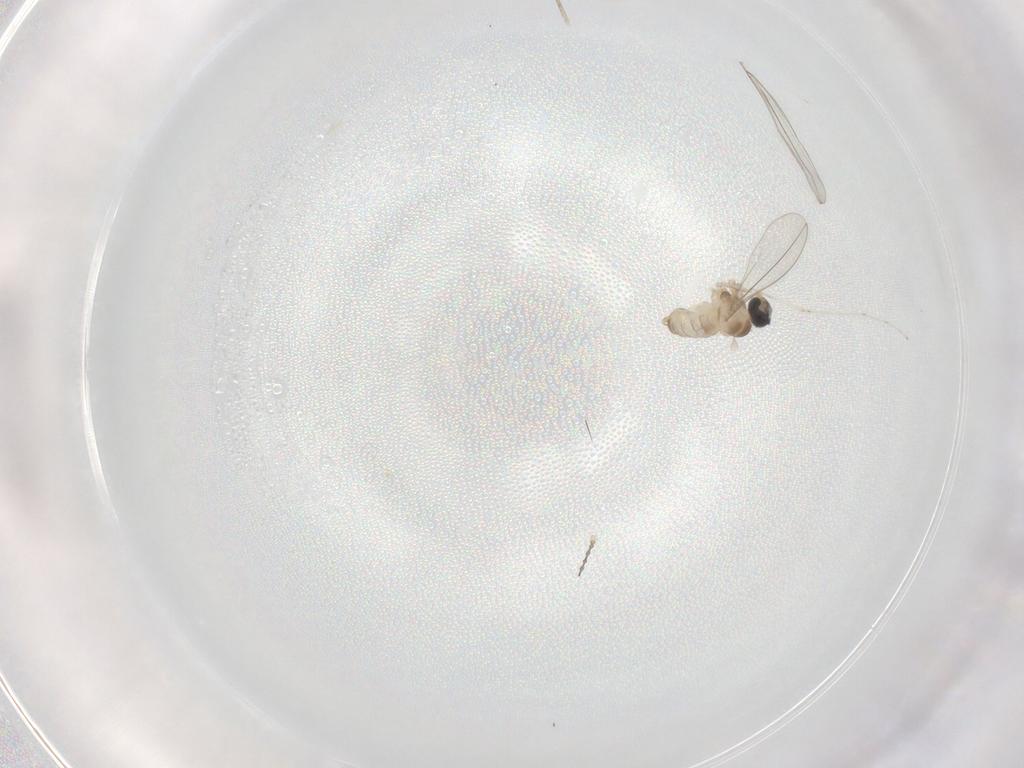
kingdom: Animalia
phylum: Arthropoda
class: Insecta
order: Diptera
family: Cecidomyiidae
